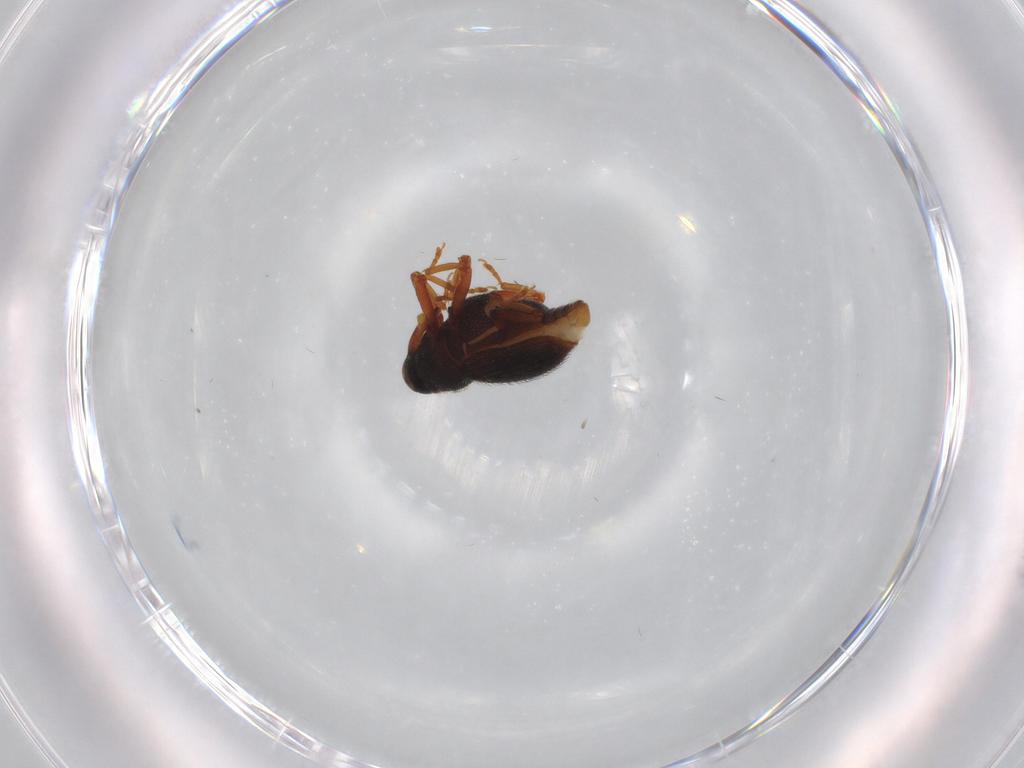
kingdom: Animalia
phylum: Arthropoda
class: Insecta
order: Coleoptera
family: Curculionidae
